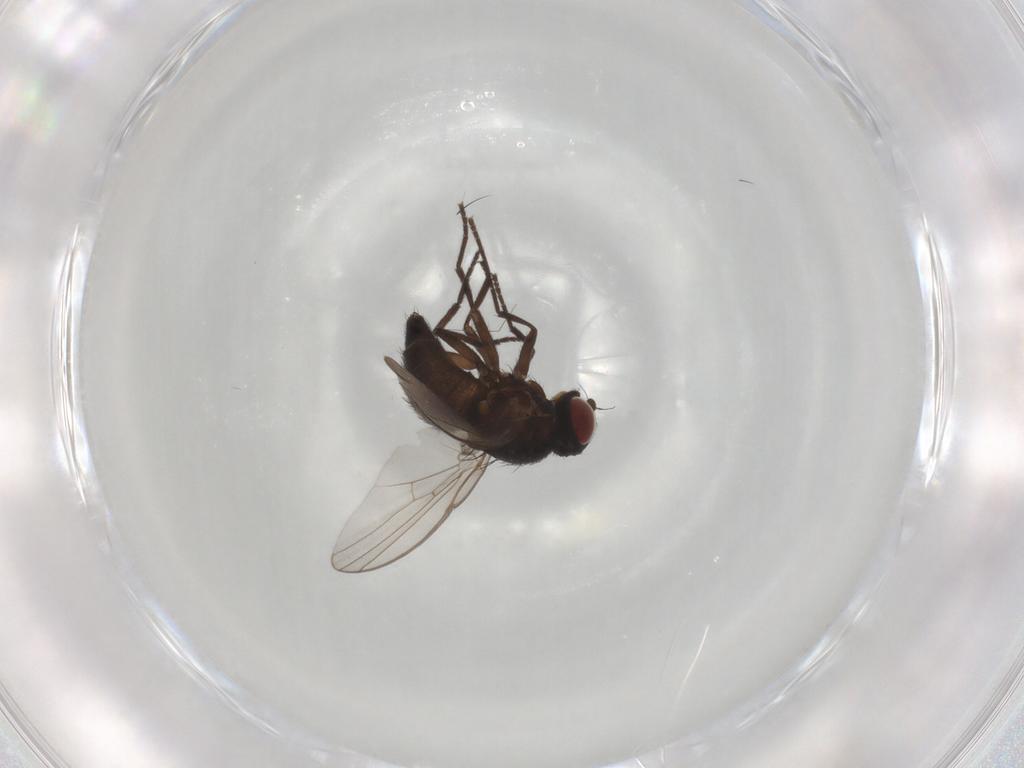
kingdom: Animalia
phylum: Arthropoda
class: Insecta
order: Diptera
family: Agromyzidae
